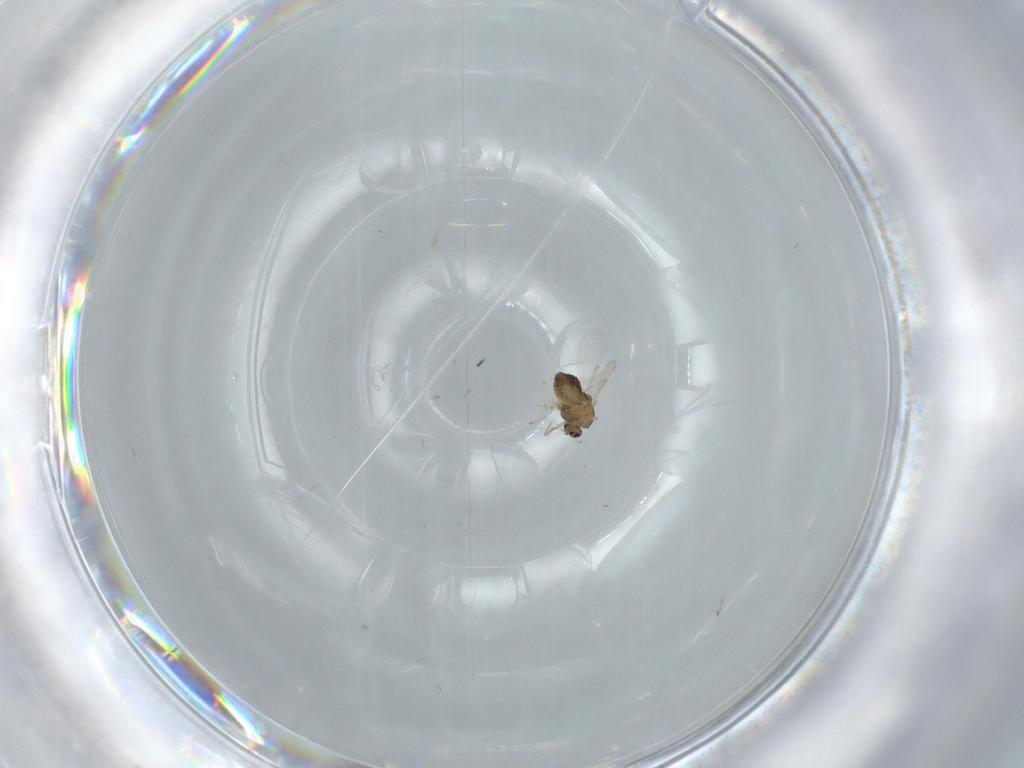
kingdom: Animalia
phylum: Arthropoda
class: Insecta
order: Diptera
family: Chironomidae
